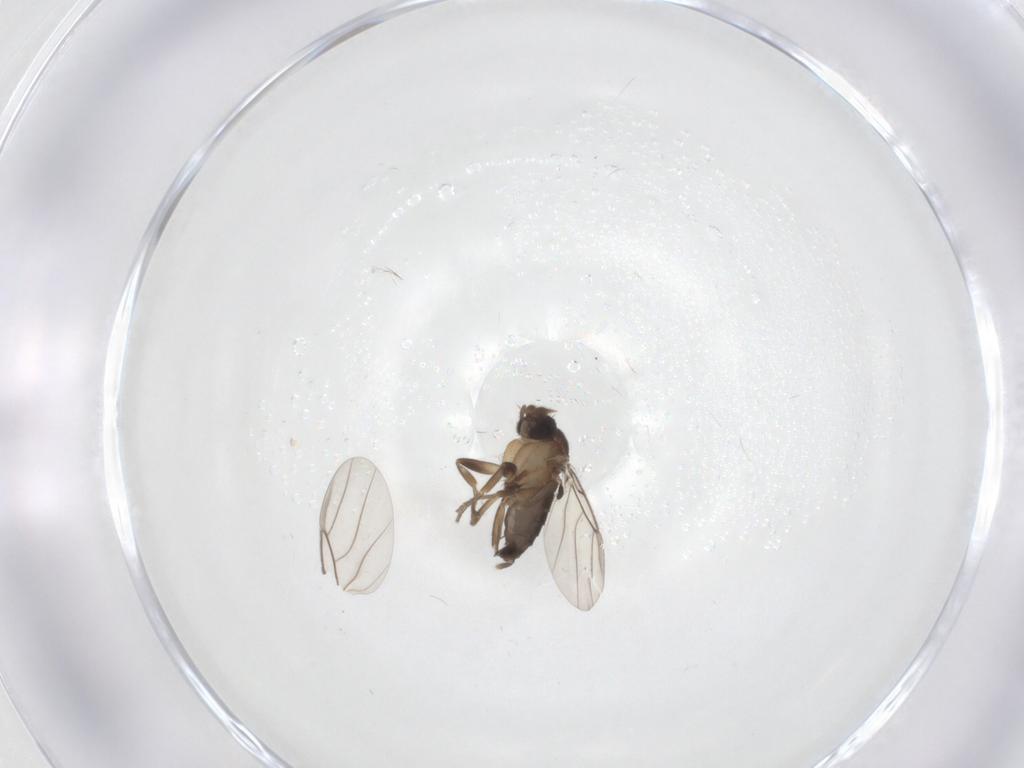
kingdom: Animalia
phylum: Arthropoda
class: Insecta
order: Diptera
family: Phoridae
